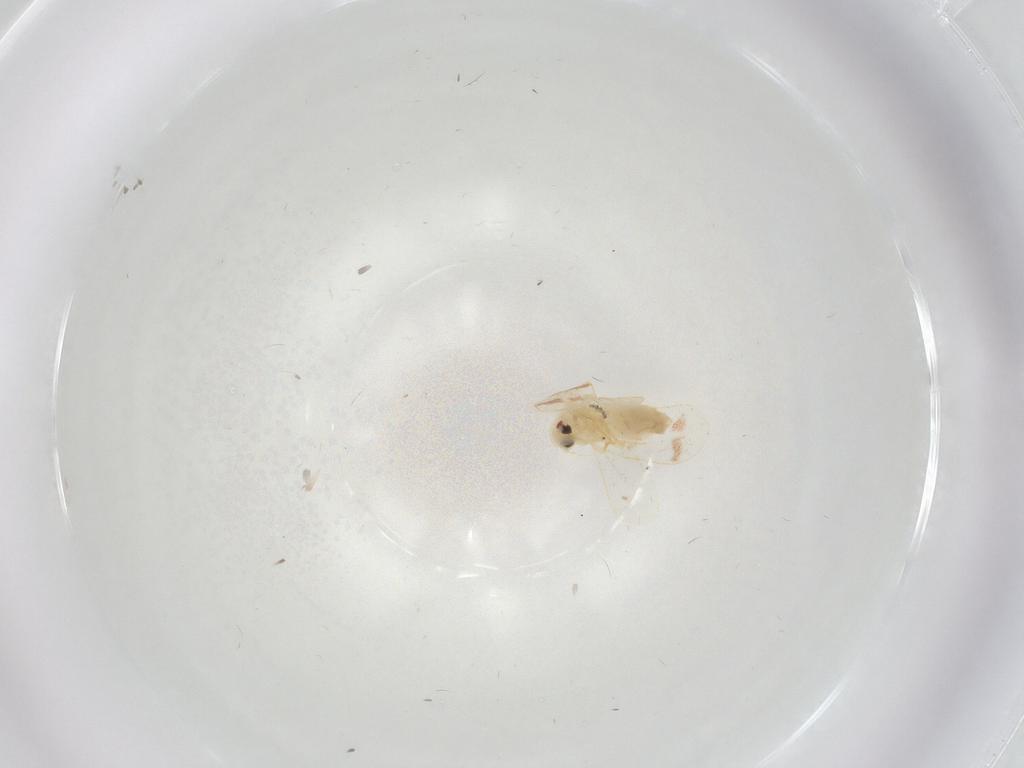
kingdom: Animalia
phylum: Arthropoda
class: Insecta
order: Hemiptera
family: Aleyrodidae
